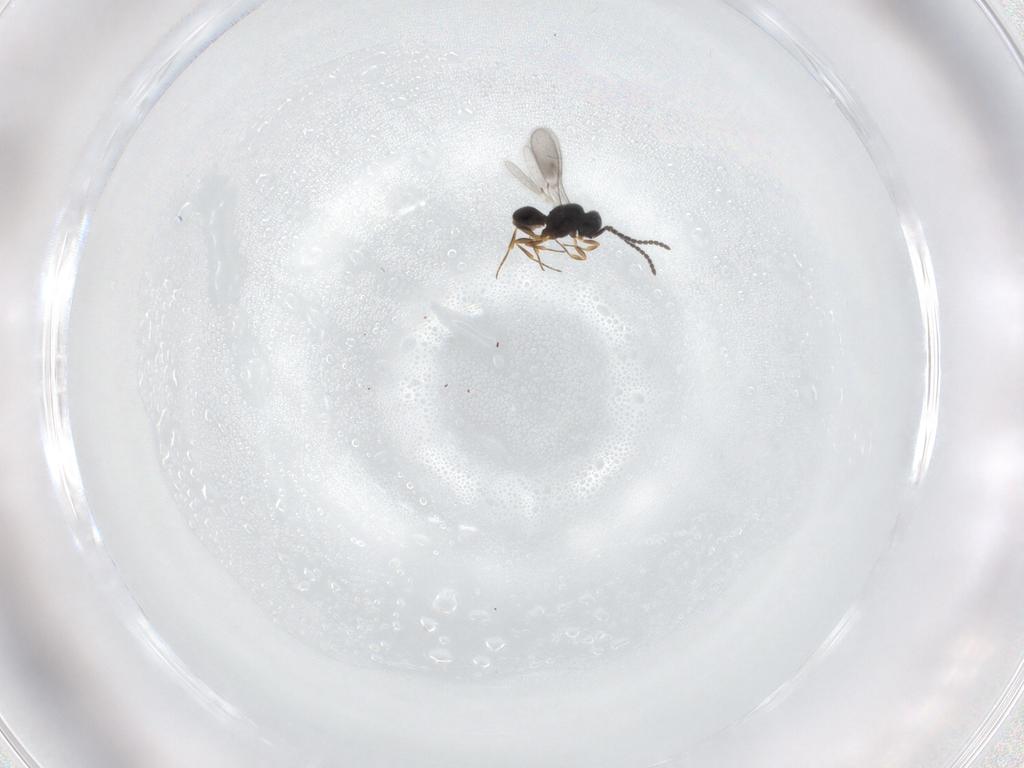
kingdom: Animalia
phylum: Arthropoda
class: Insecta
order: Hymenoptera
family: Scelionidae
